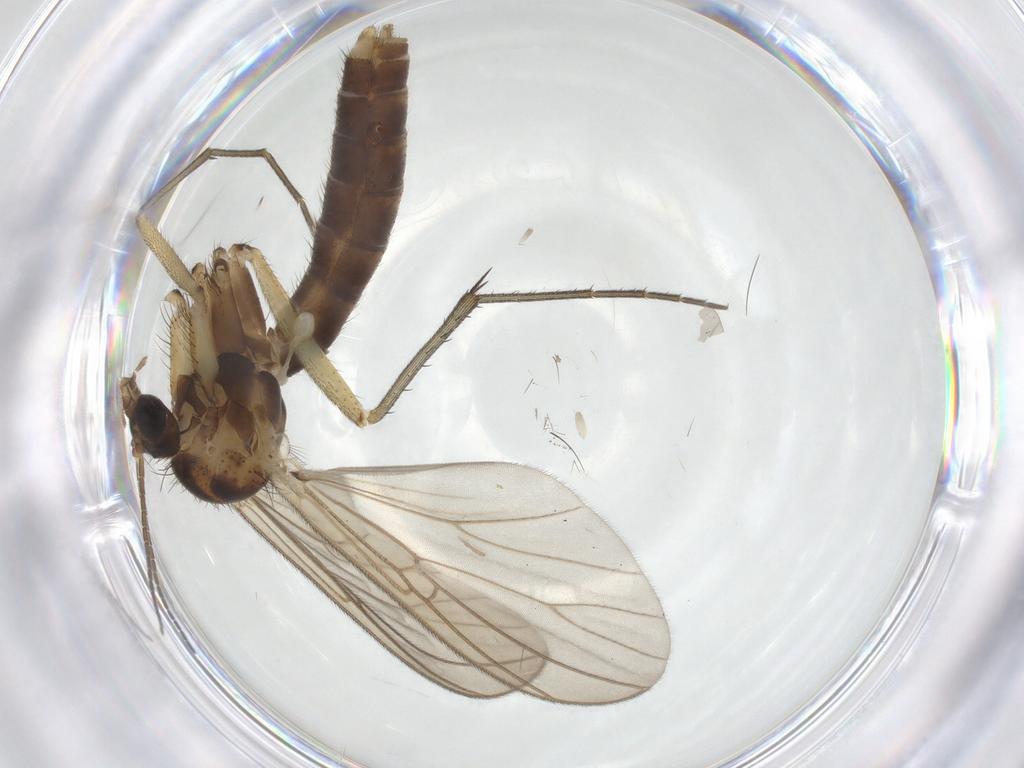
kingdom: Animalia
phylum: Arthropoda
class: Insecta
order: Diptera
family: Mycetophilidae
